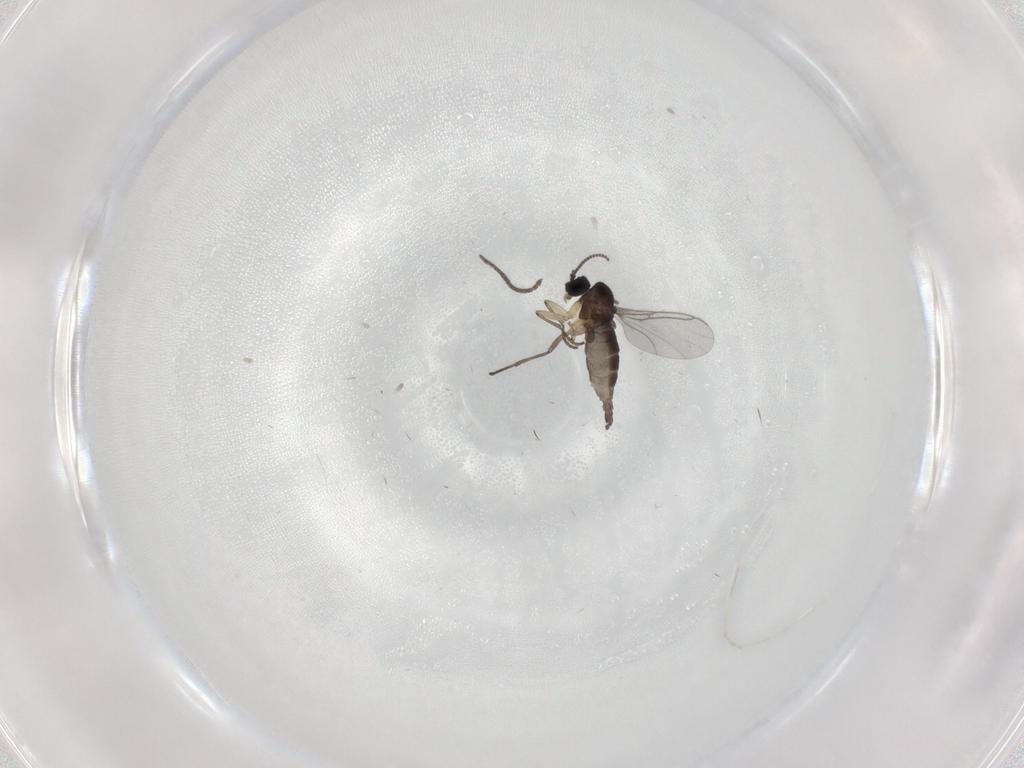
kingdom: Animalia
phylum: Arthropoda
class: Insecta
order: Diptera
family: Sciaridae
